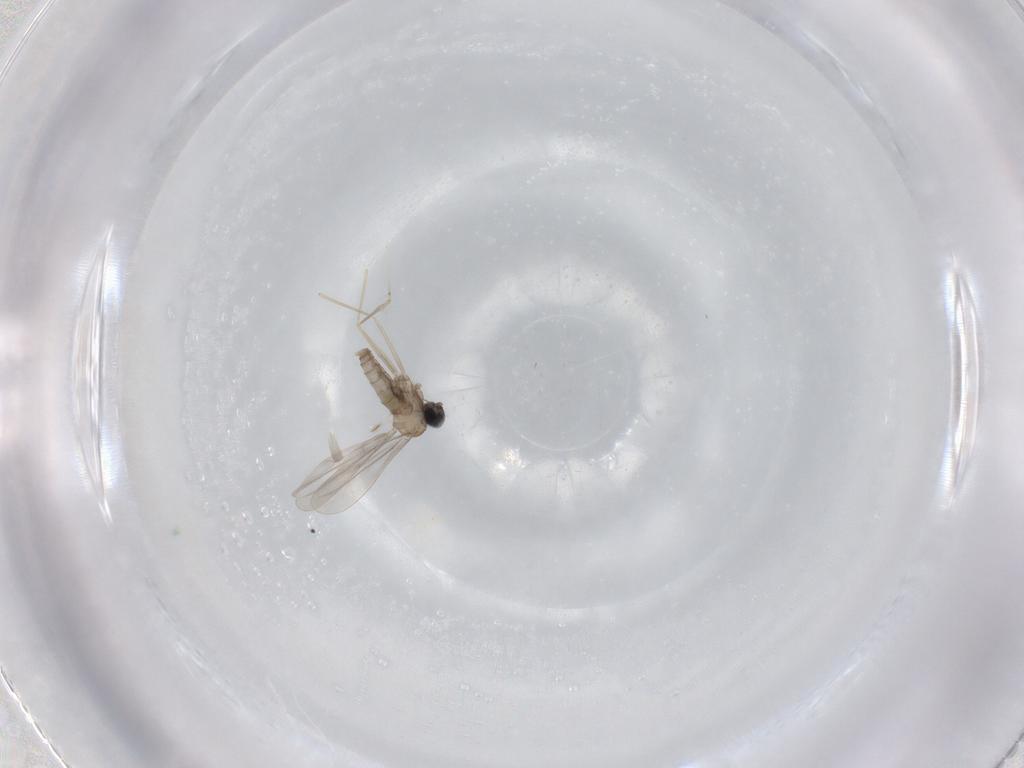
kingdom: Animalia
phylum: Arthropoda
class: Insecta
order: Diptera
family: Cecidomyiidae
